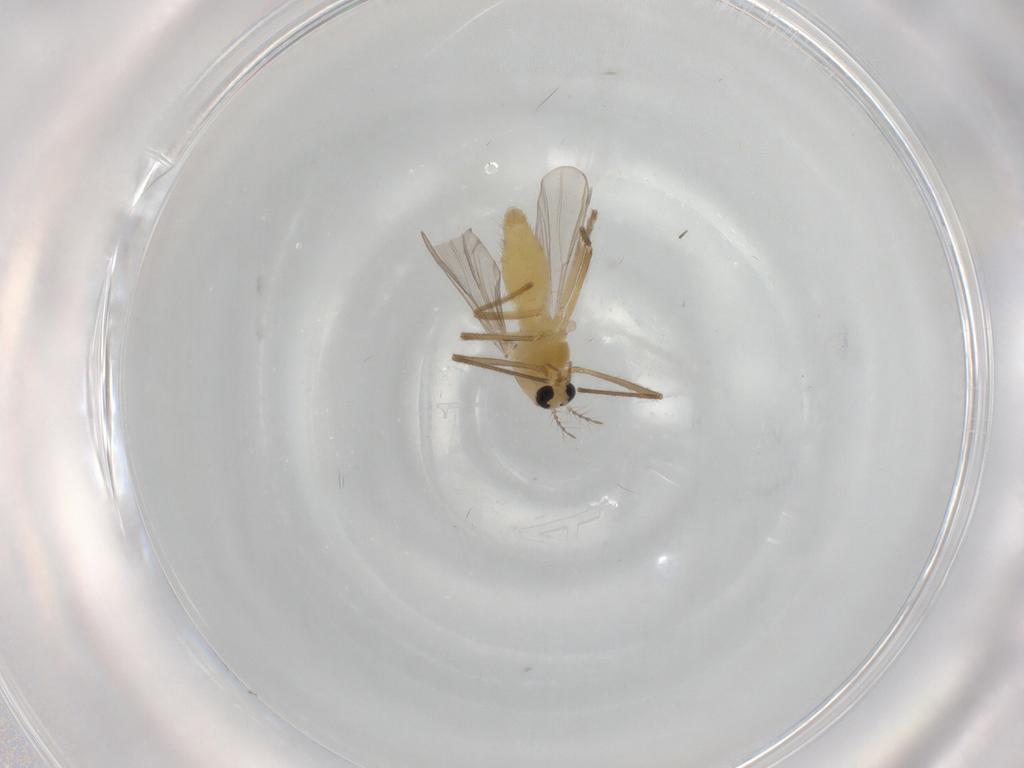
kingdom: Animalia
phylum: Arthropoda
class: Insecta
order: Diptera
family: Chironomidae
